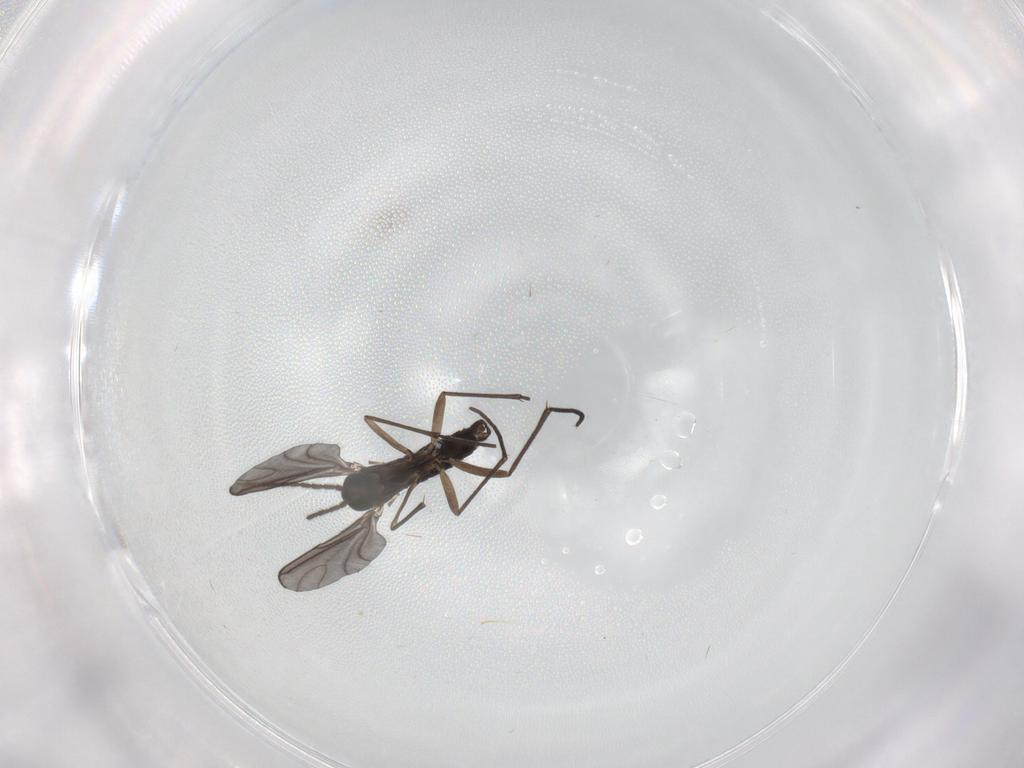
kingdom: Animalia
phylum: Arthropoda
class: Insecta
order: Diptera
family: Sciaridae
